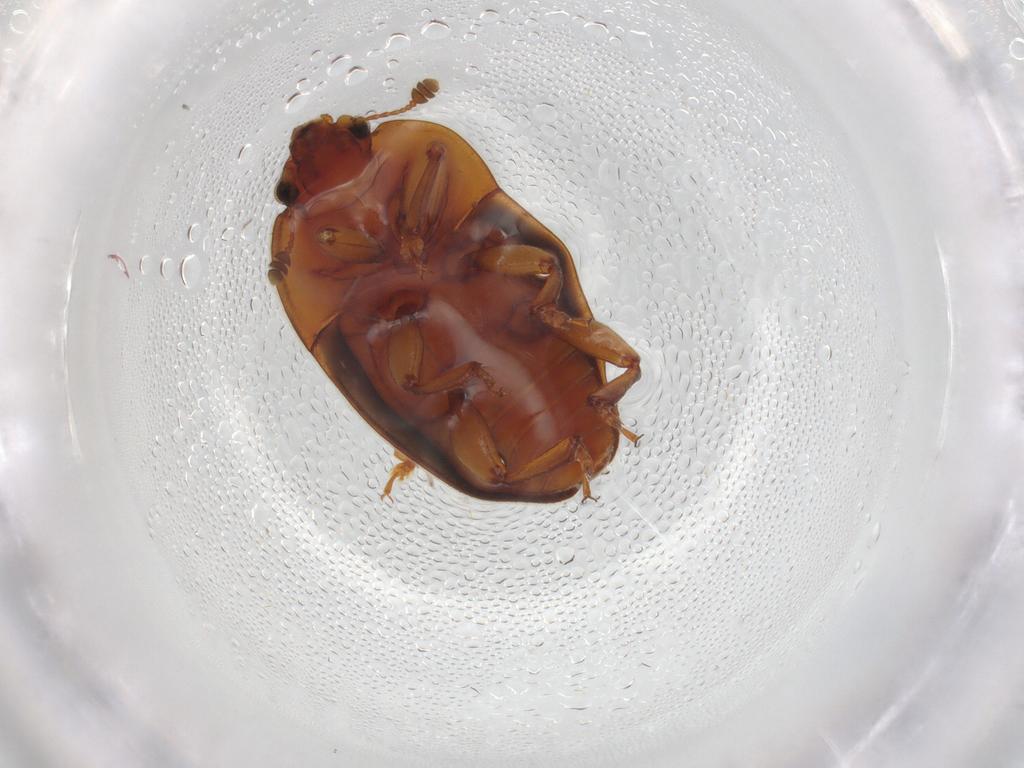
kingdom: Animalia
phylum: Arthropoda
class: Insecta
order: Coleoptera
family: Nitidulidae
